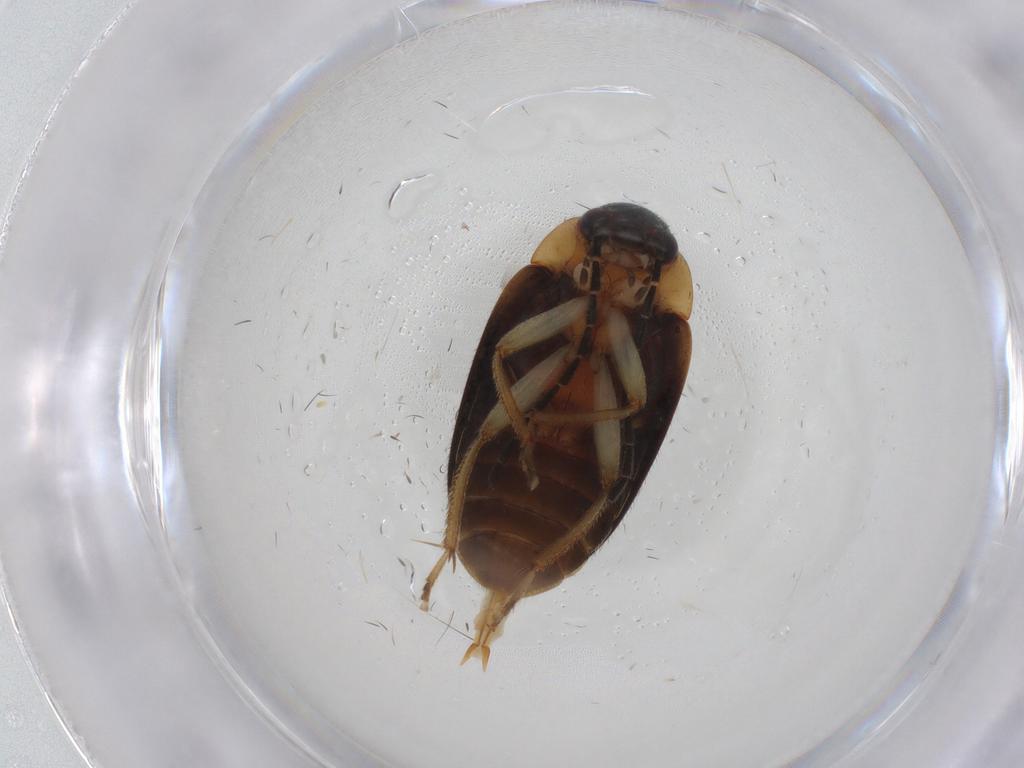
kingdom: Animalia
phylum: Arthropoda
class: Insecta
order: Coleoptera
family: Ptilodactylidae
